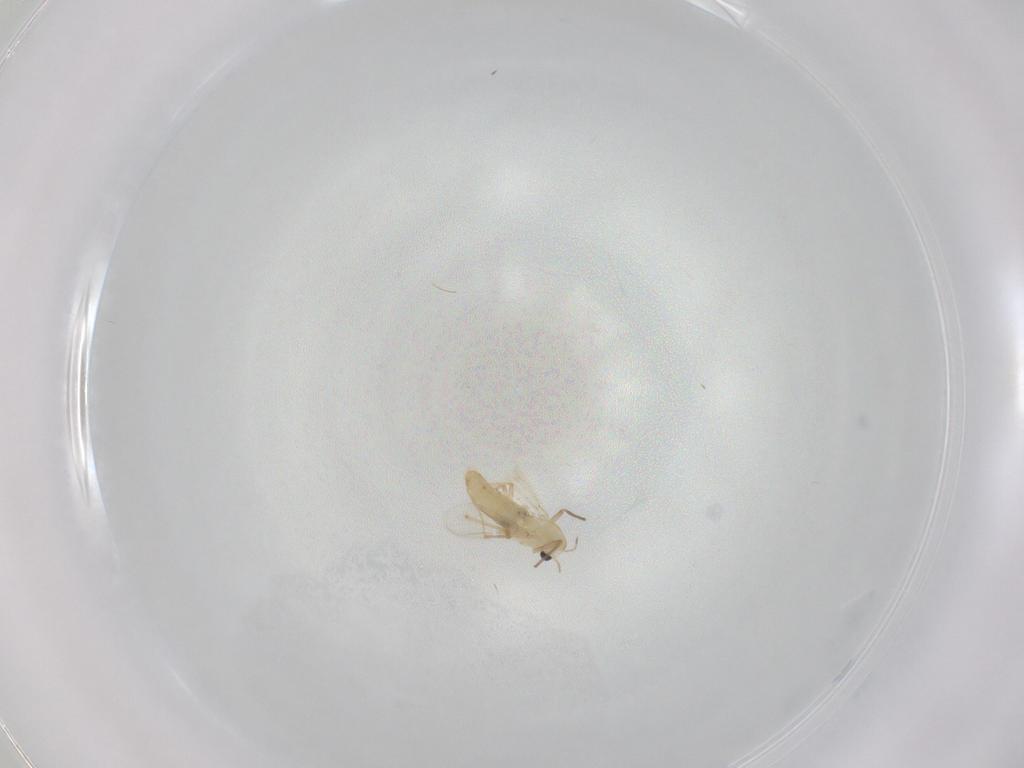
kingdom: Animalia
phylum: Arthropoda
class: Insecta
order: Diptera
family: Chironomidae
